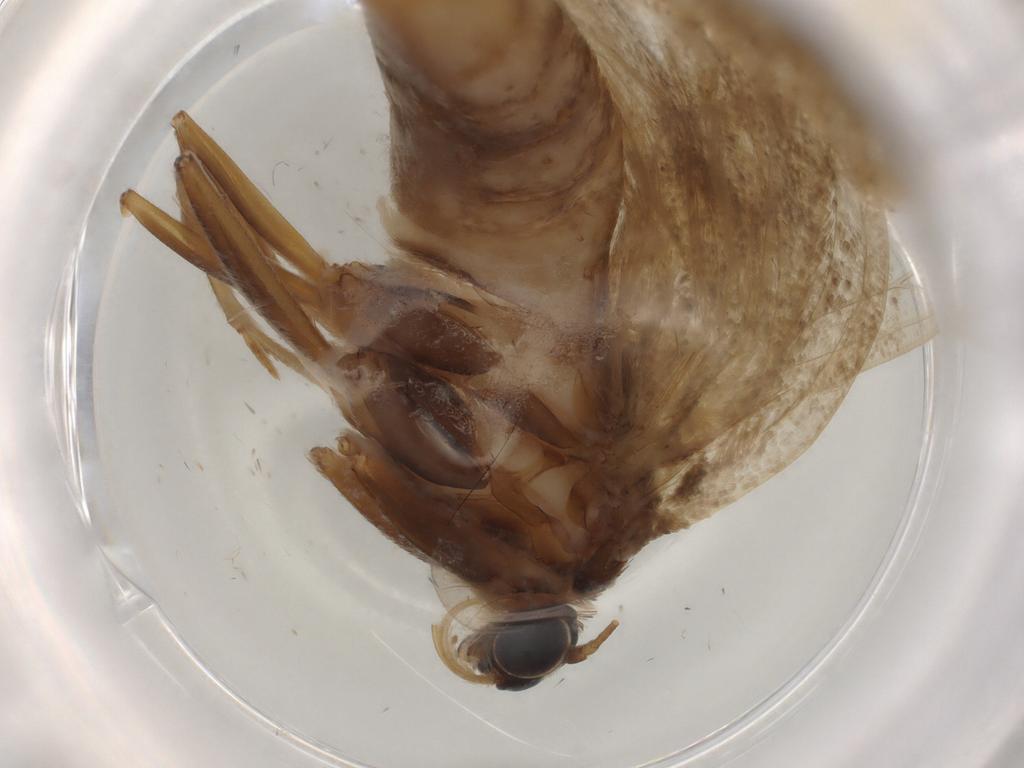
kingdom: Animalia
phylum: Arthropoda
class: Insecta
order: Lepidoptera
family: Crambidae
